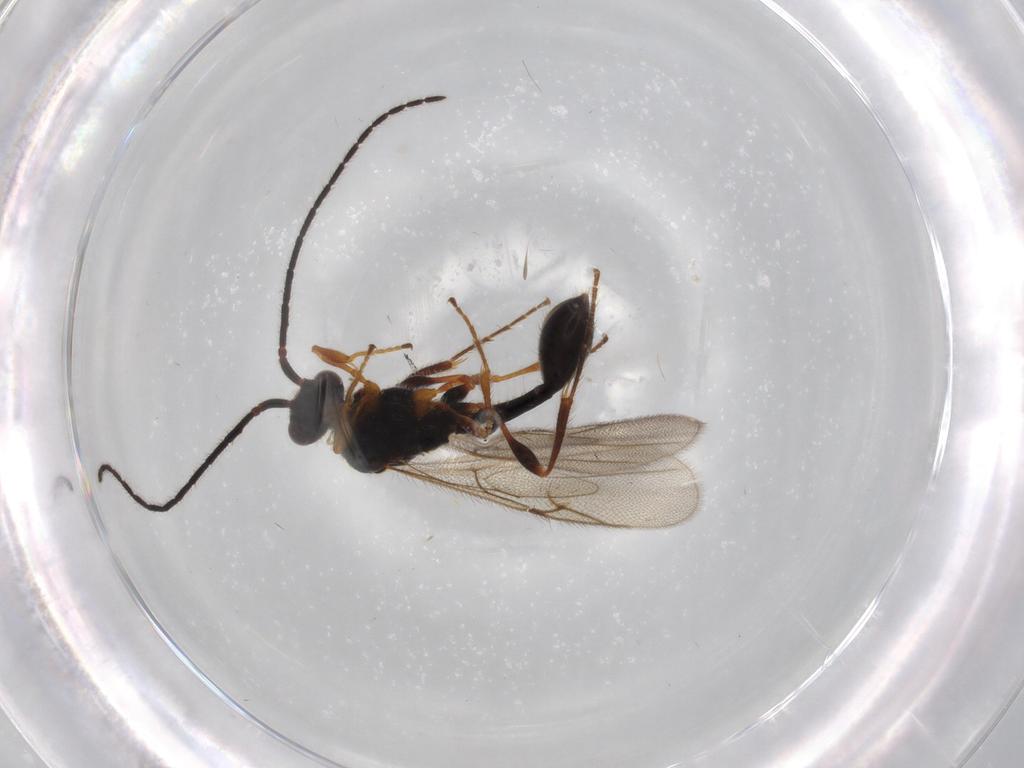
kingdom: Animalia
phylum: Arthropoda
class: Insecta
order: Hymenoptera
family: Diapriidae
